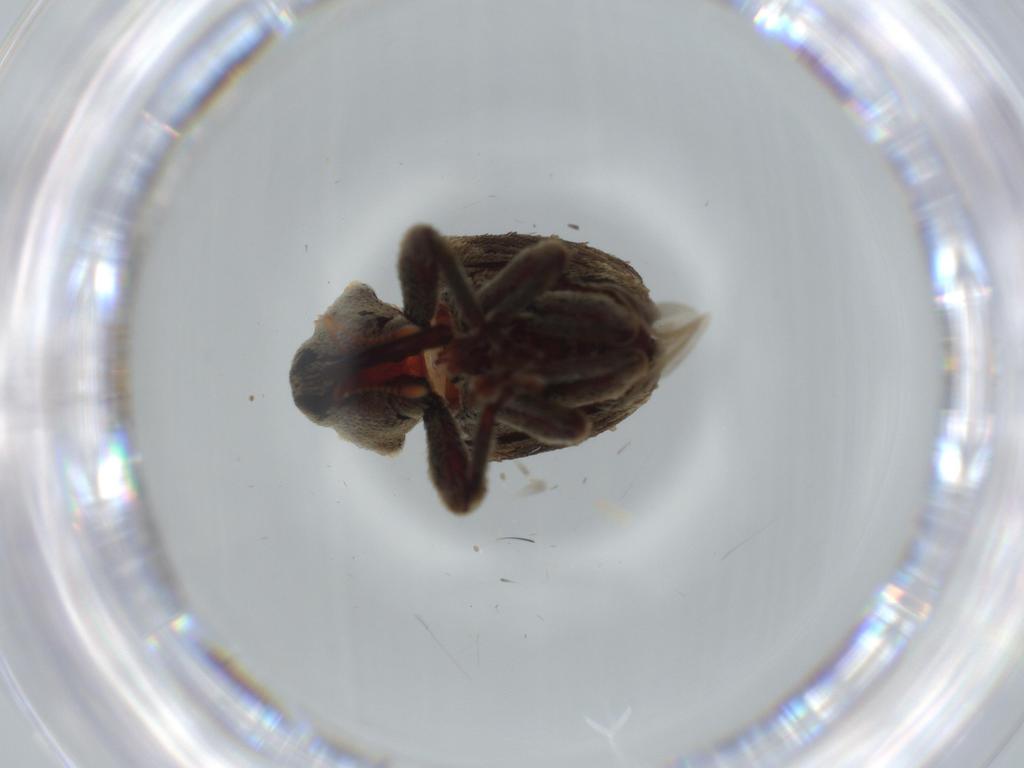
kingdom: Animalia
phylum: Arthropoda
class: Insecta
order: Coleoptera
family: Curculionidae
